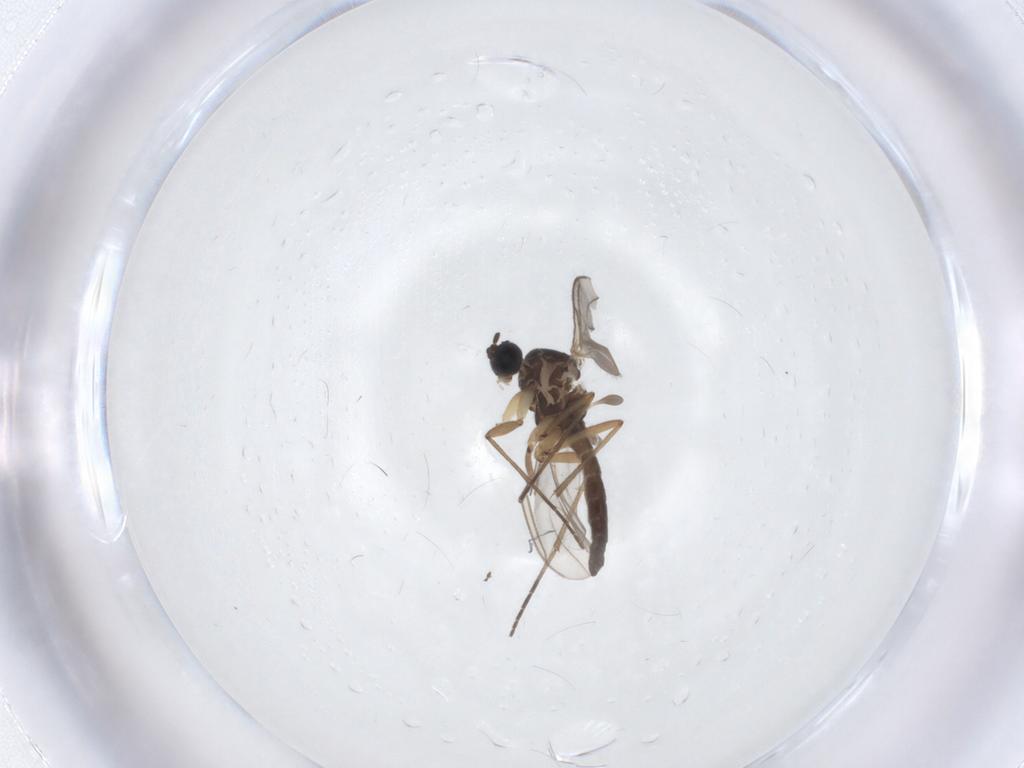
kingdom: Animalia
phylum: Arthropoda
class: Insecta
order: Diptera
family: Sciaridae
